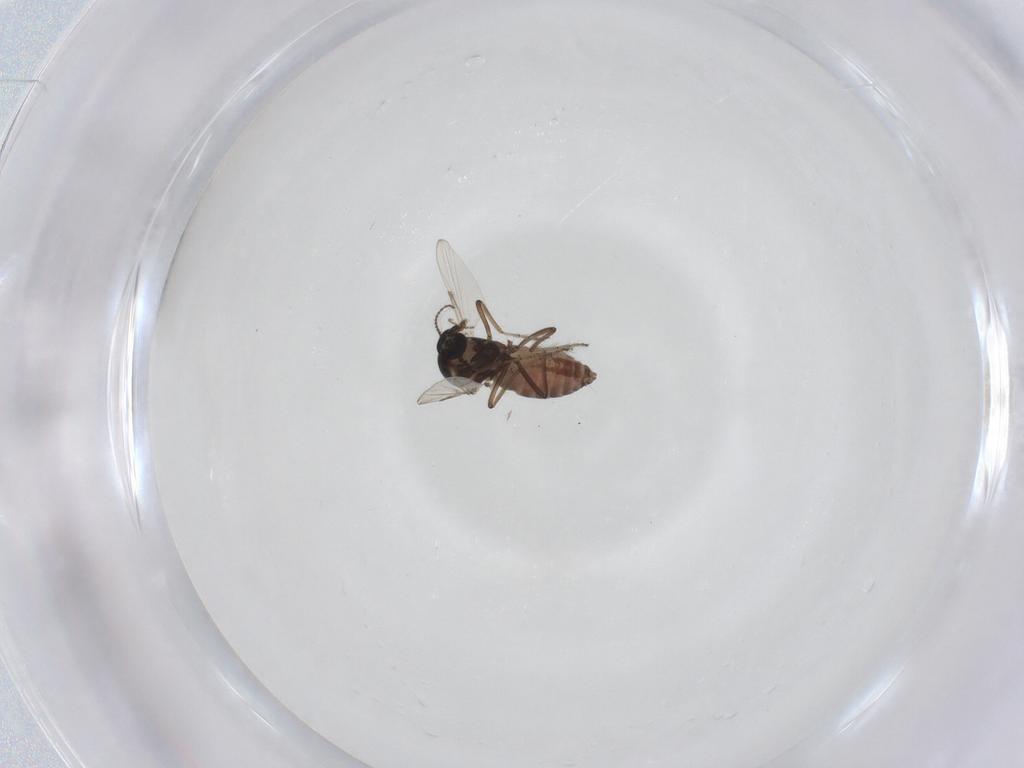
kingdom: Animalia
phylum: Arthropoda
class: Insecta
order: Diptera
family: Ceratopogonidae
